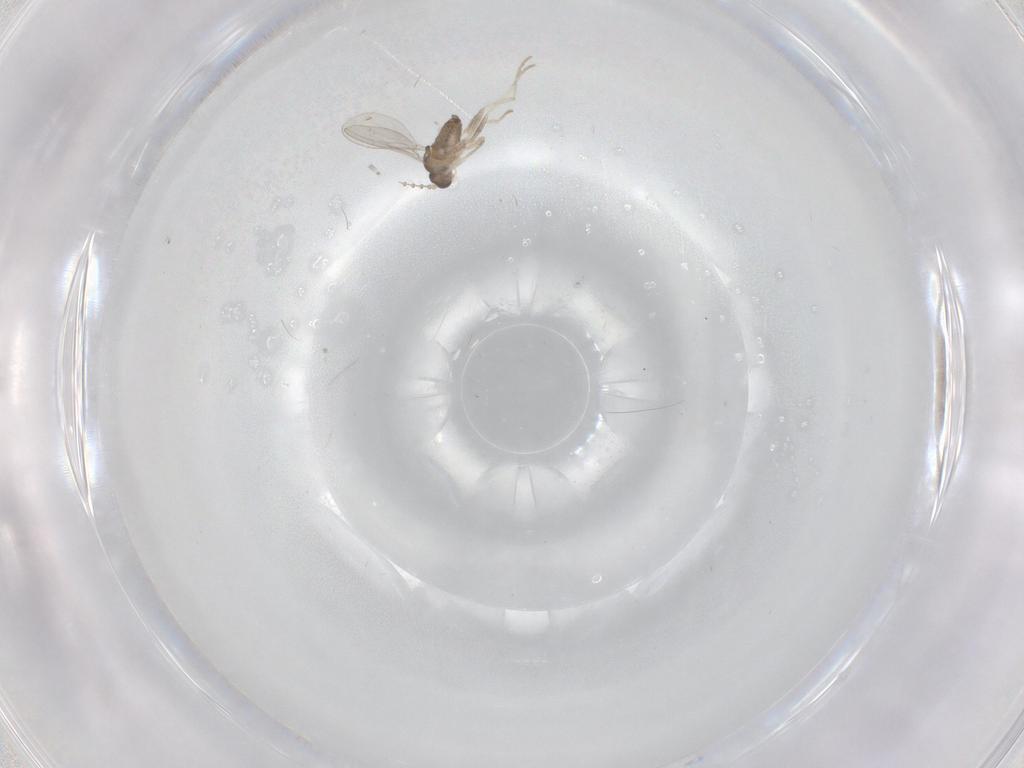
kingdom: Animalia
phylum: Arthropoda
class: Insecta
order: Diptera
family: Cecidomyiidae
